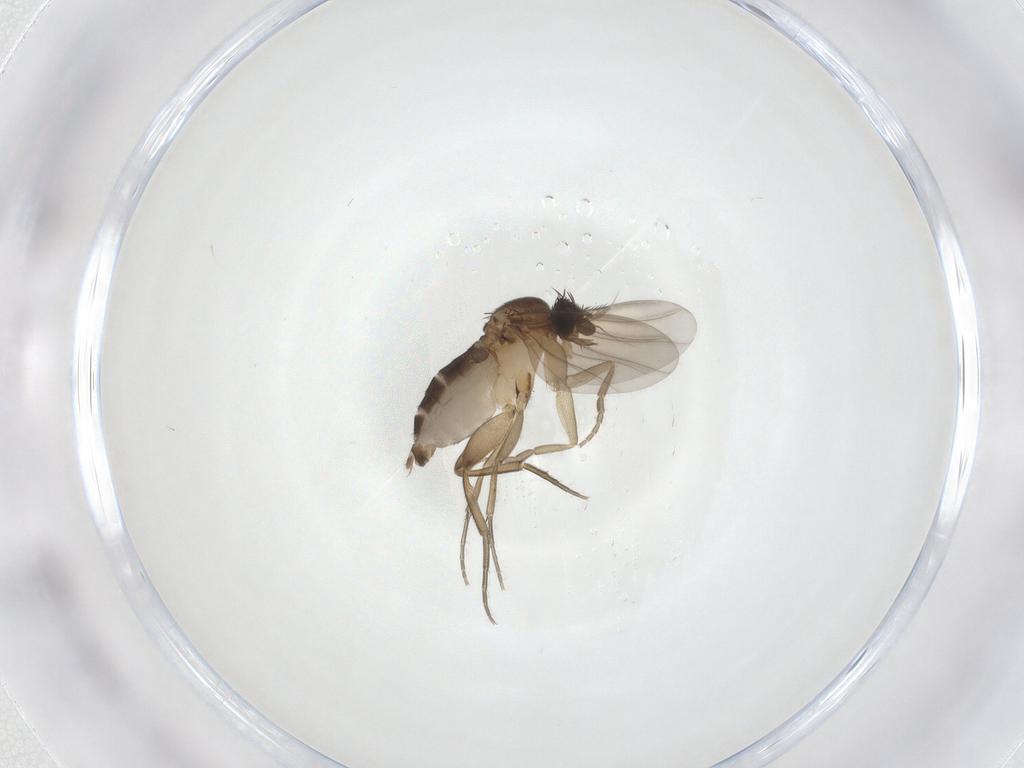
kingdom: Animalia
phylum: Arthropoda
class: Insecta
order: Diptera
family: Phoridae
